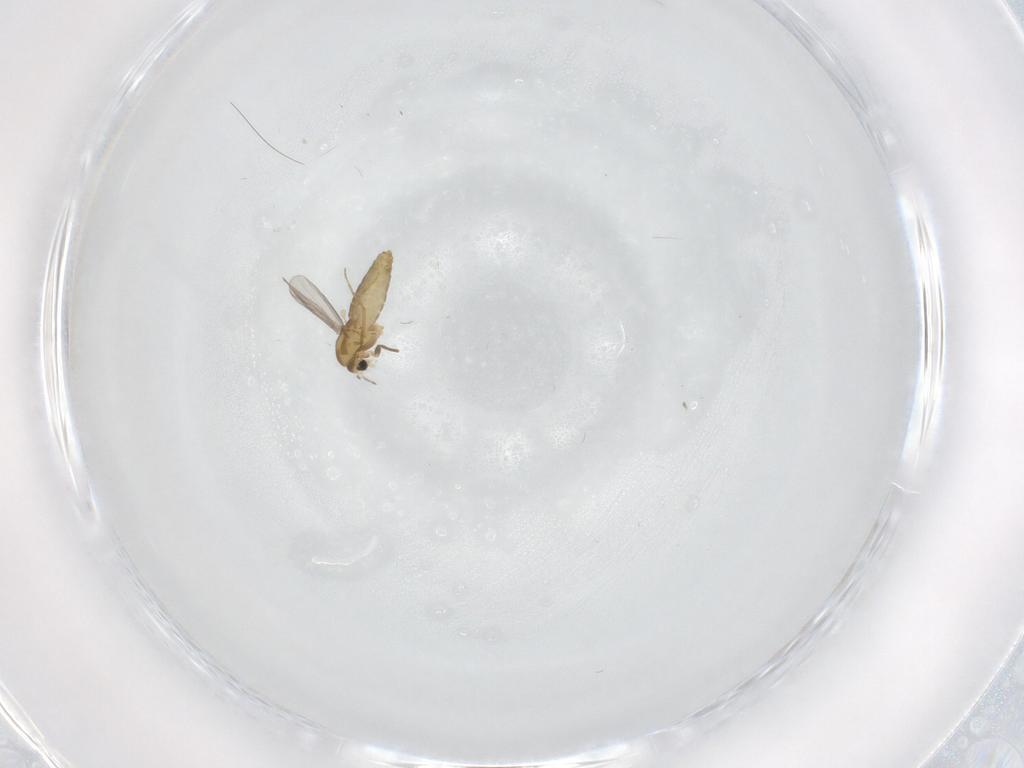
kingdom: Animalia
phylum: Arthropoda
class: Insecta
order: Diptera
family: Chironomidae
